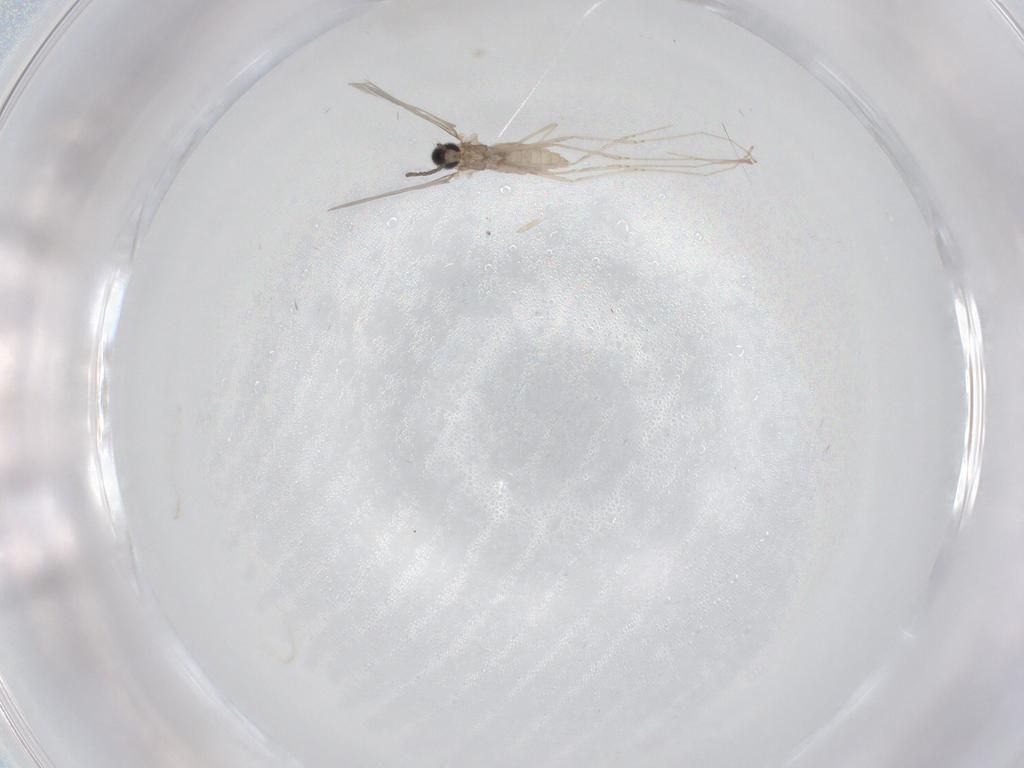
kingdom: Animalia
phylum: Arthropoda
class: Insecta
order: Diptera
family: Cecidomyiidae
